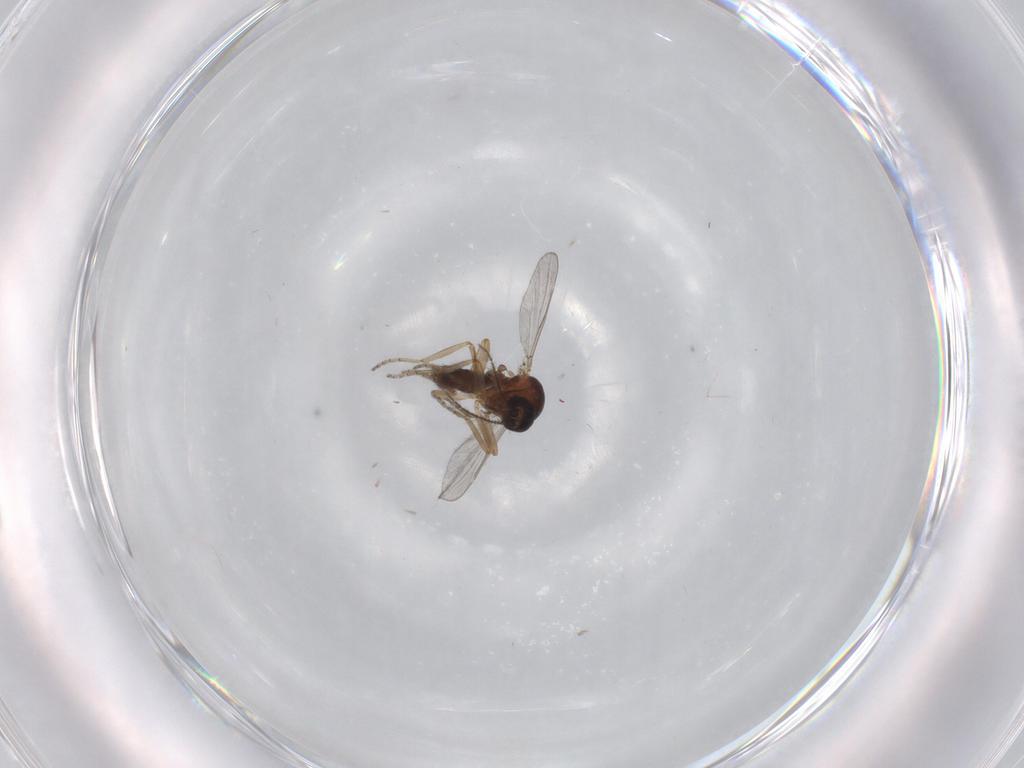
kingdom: Animalia
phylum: Arthropoda
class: Insecta
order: Diptera
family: Ceratopogonidae
